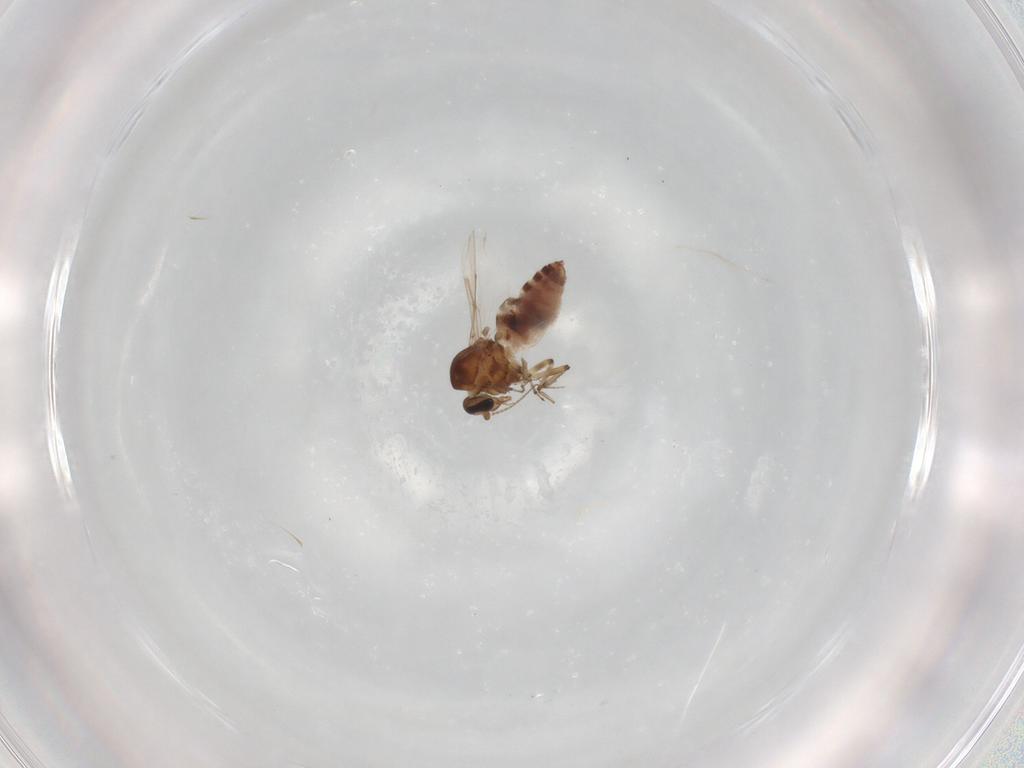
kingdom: Animalia
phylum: Arthropoda
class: Insecta
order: Diptera
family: Ceratopogonidae
